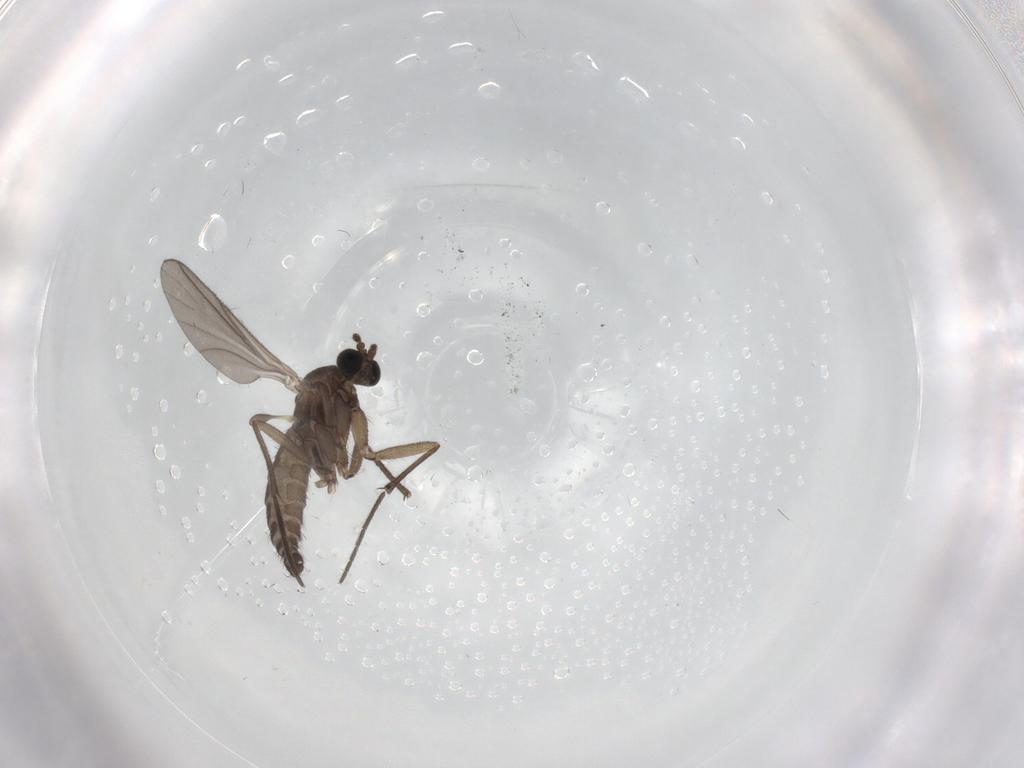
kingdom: Animalia
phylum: Arthropoda
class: Insecta
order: Diptera
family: Sciaridae
